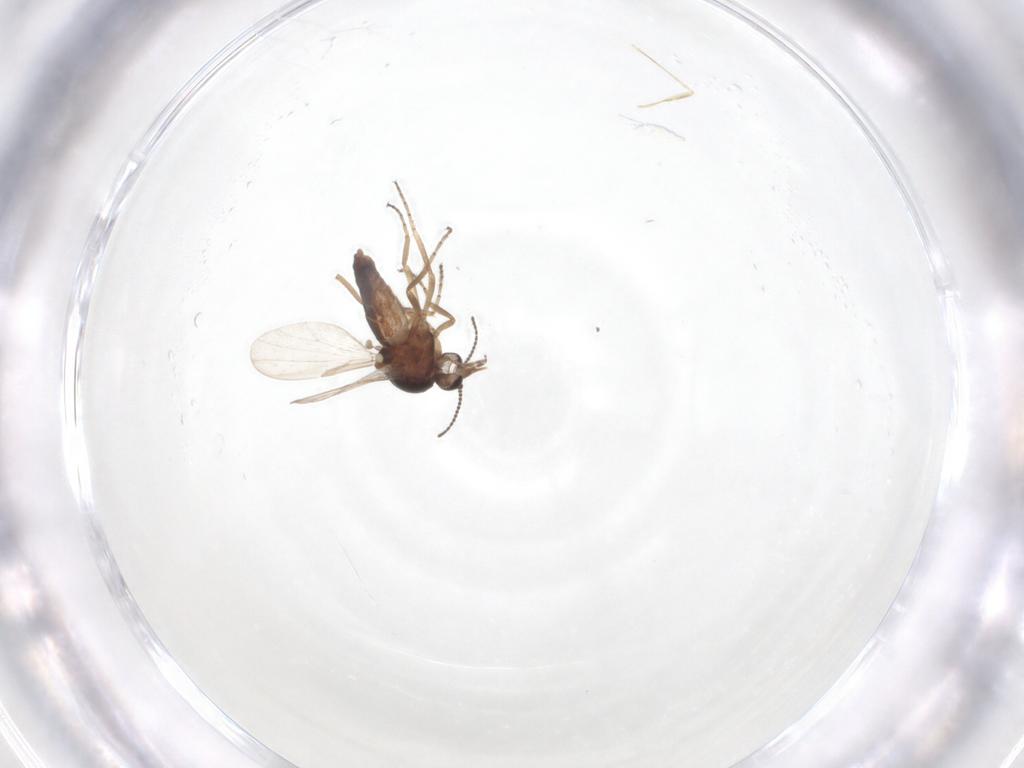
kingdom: Animalia
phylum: Arthropoda
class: Insecta
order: Diptera
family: Ceratopogonidae
